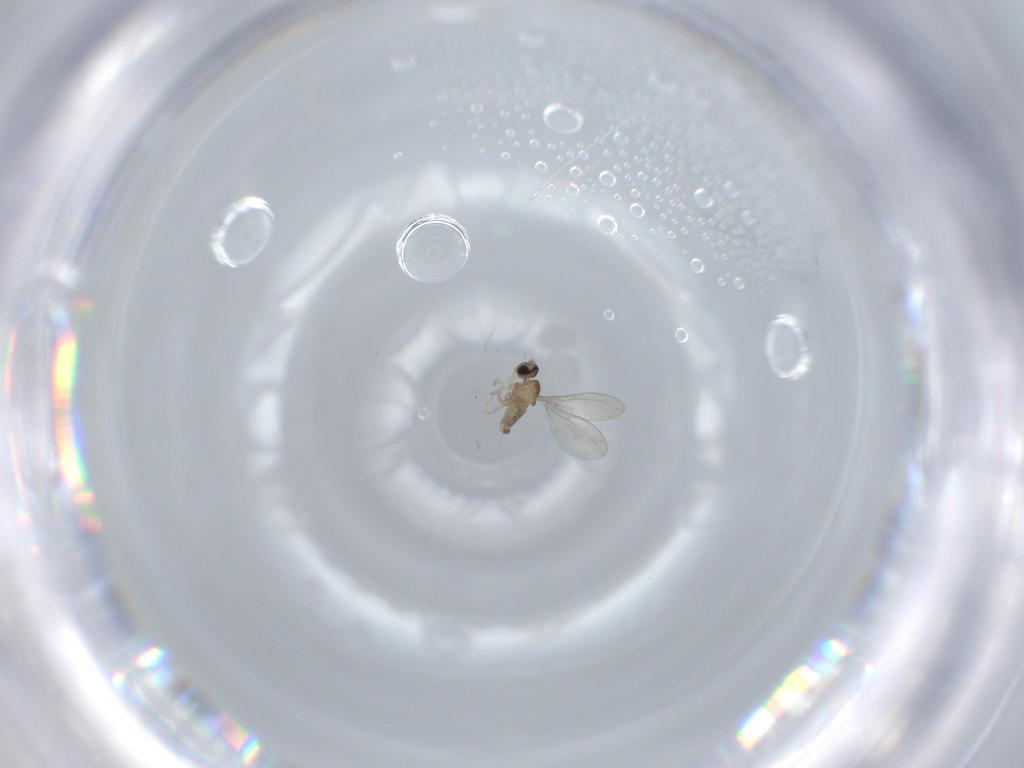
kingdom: Animalia
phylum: Arthropoda
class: Insecta
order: Diptera
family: Cecidomyiidae
